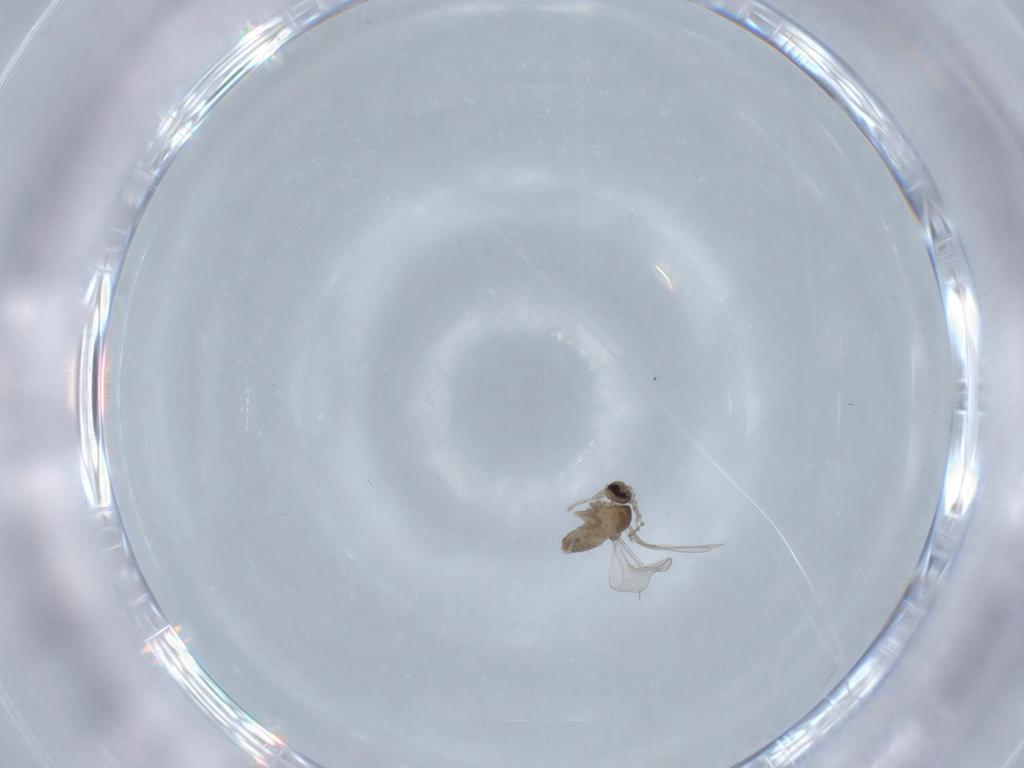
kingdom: Animalia
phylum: Arthropoda
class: Insecta
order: Diptera
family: Cecidomyiidae
